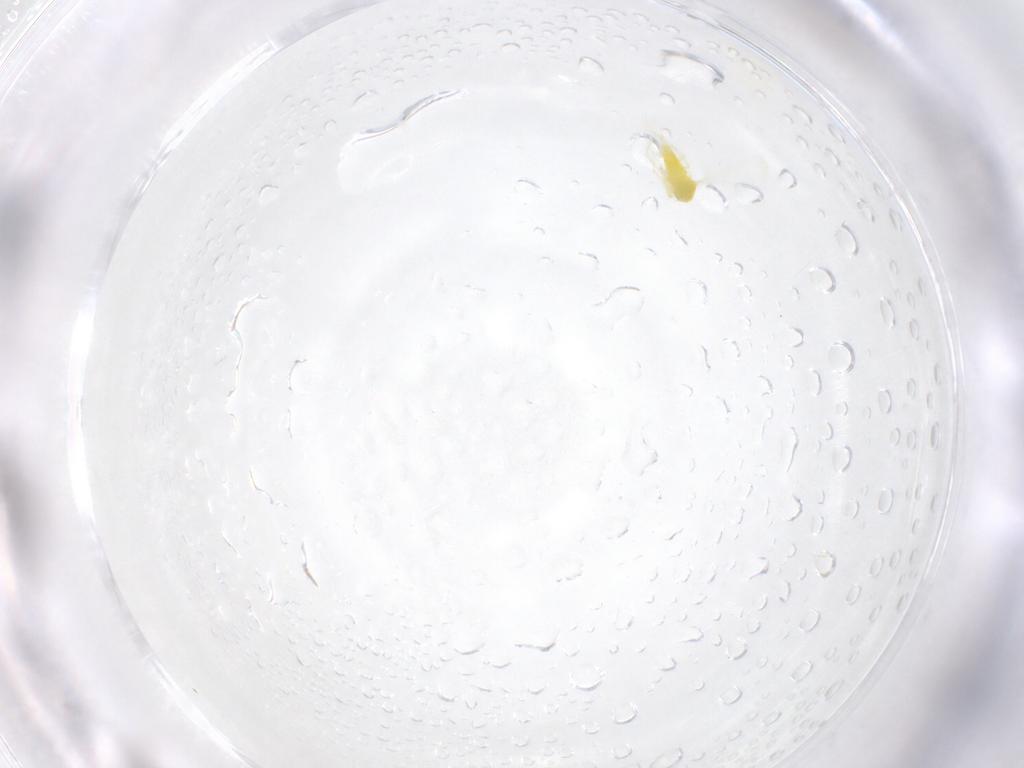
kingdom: Animalia
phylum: Arthropoda
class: Insecta
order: Hemiptera
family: Aleyrodidae
